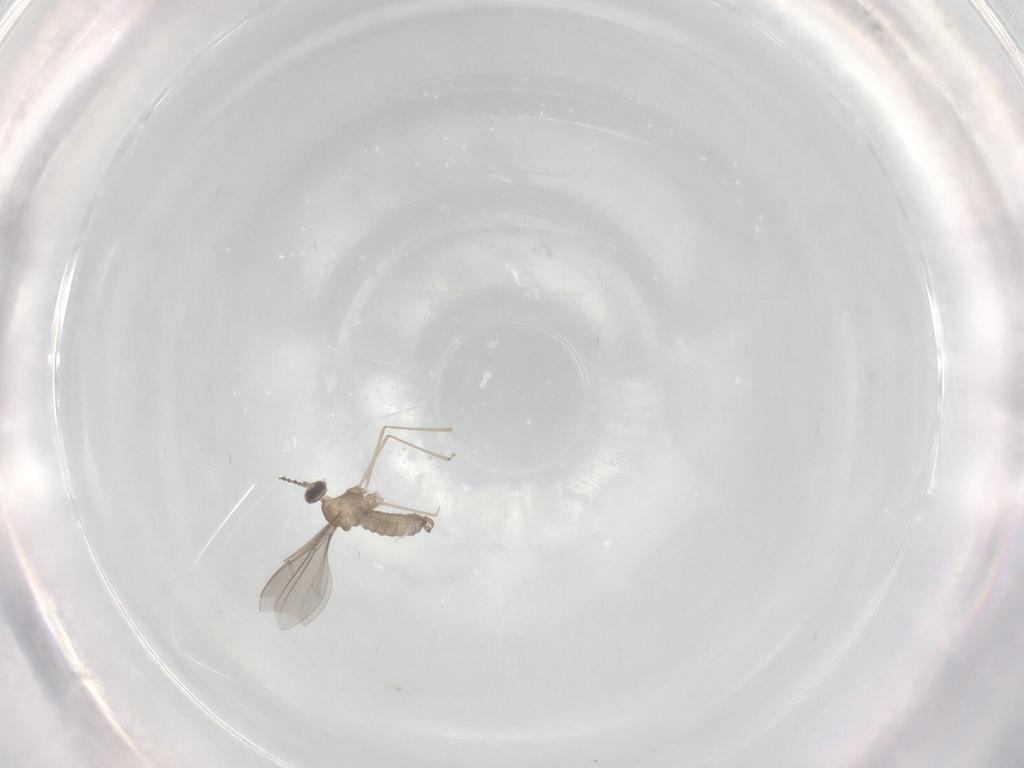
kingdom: Animalia
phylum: Arthropoda
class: Insecta
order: Diptera
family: Cecidomyiidae
